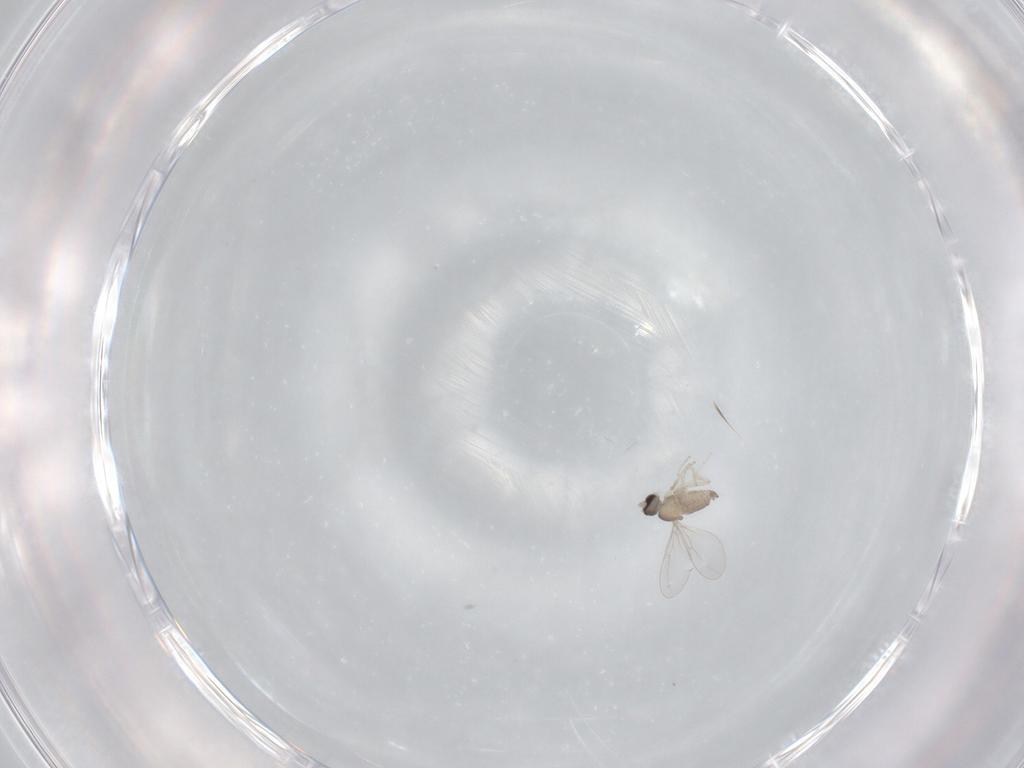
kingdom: Animalia
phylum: Arthropoda
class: Insecta
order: Diptera
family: Cecidomyiidae
